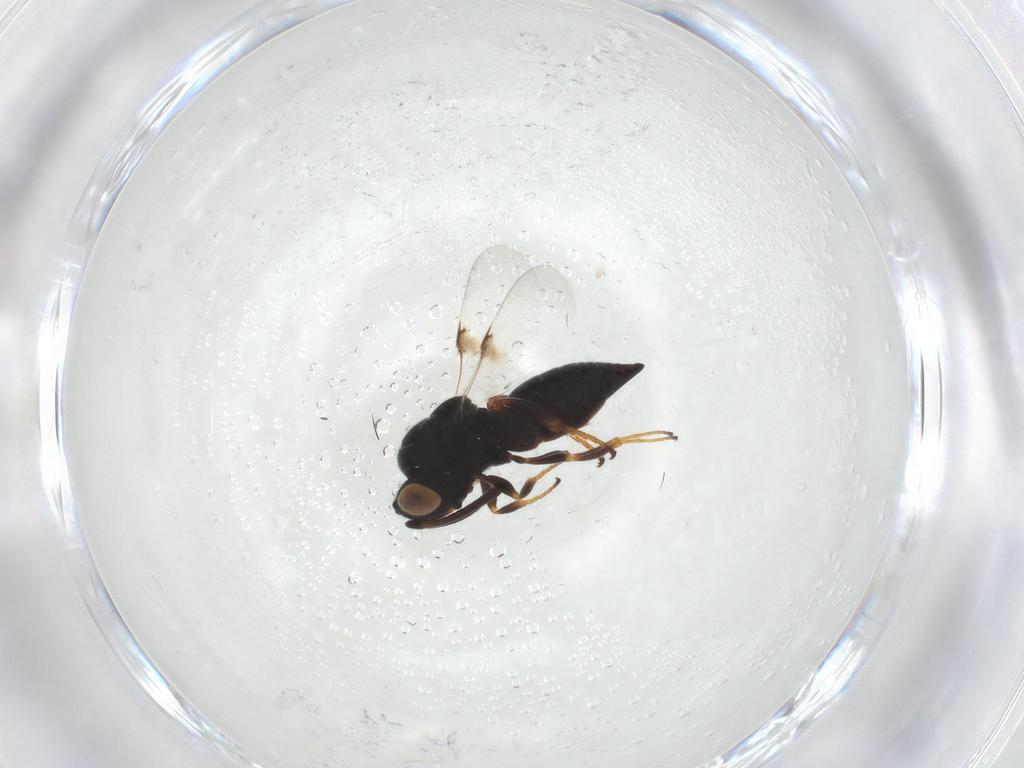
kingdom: Animalia
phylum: Arthropoda
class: Insecta
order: Hymenoptera
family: Chalcididae
